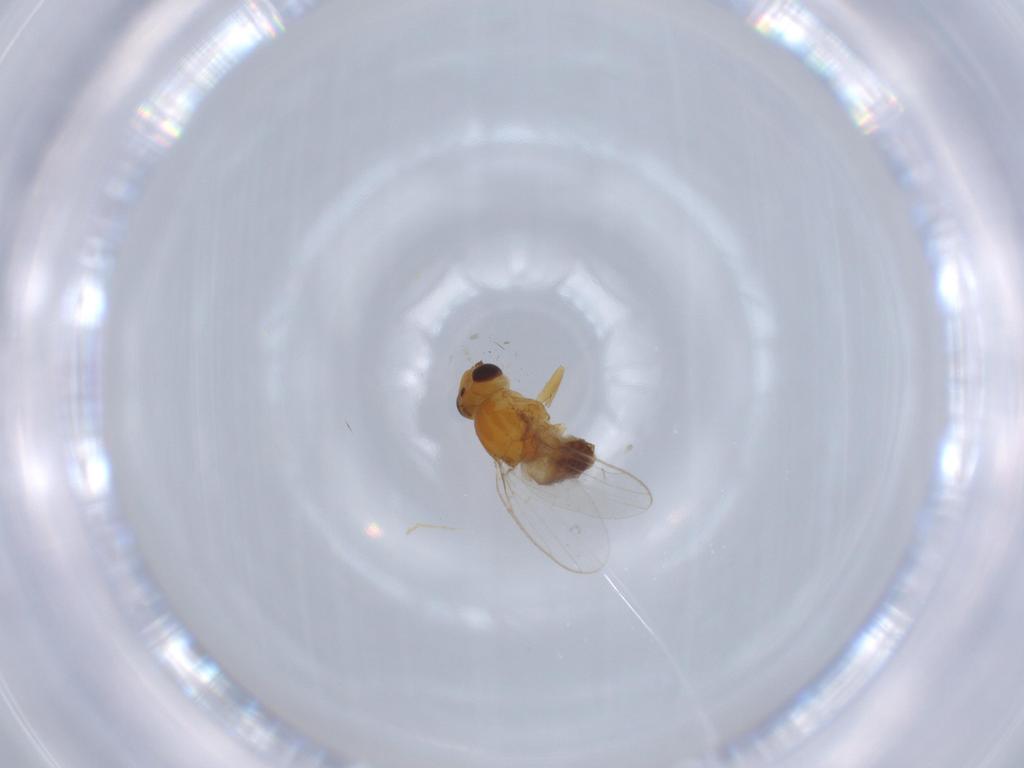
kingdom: Animalia
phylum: Arthropoda
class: Insecta
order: Diptera
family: Chloropidae
